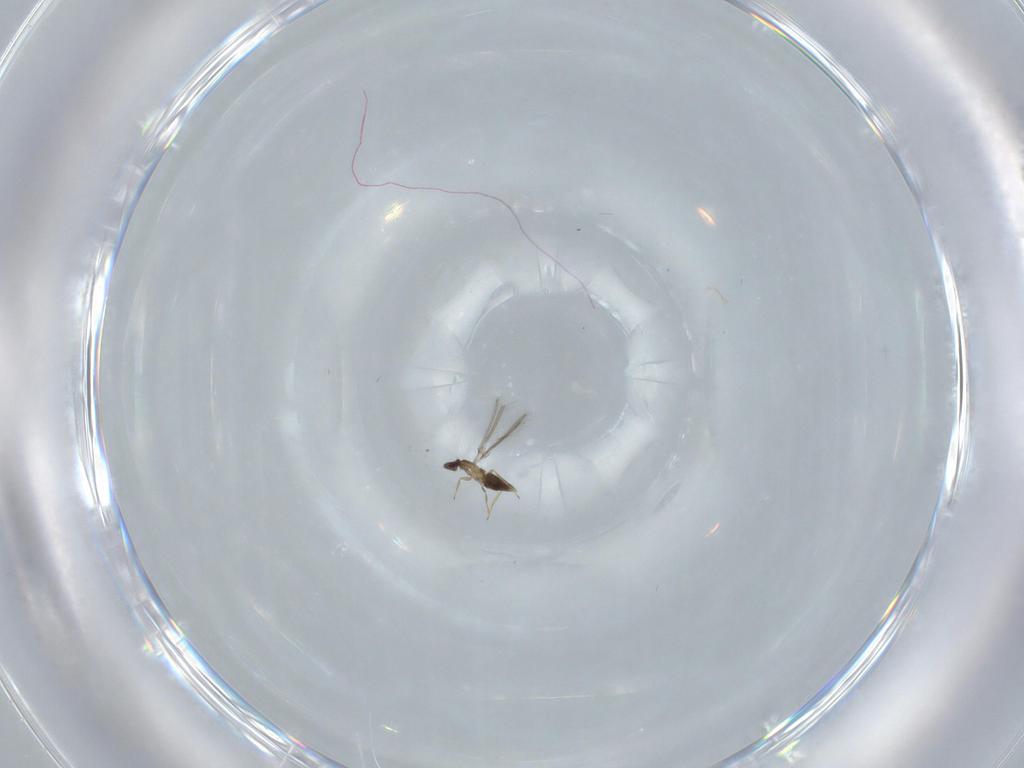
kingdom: Animalia
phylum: Arthropoda
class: Insecta
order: Hymenoptera
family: Mymaridae
